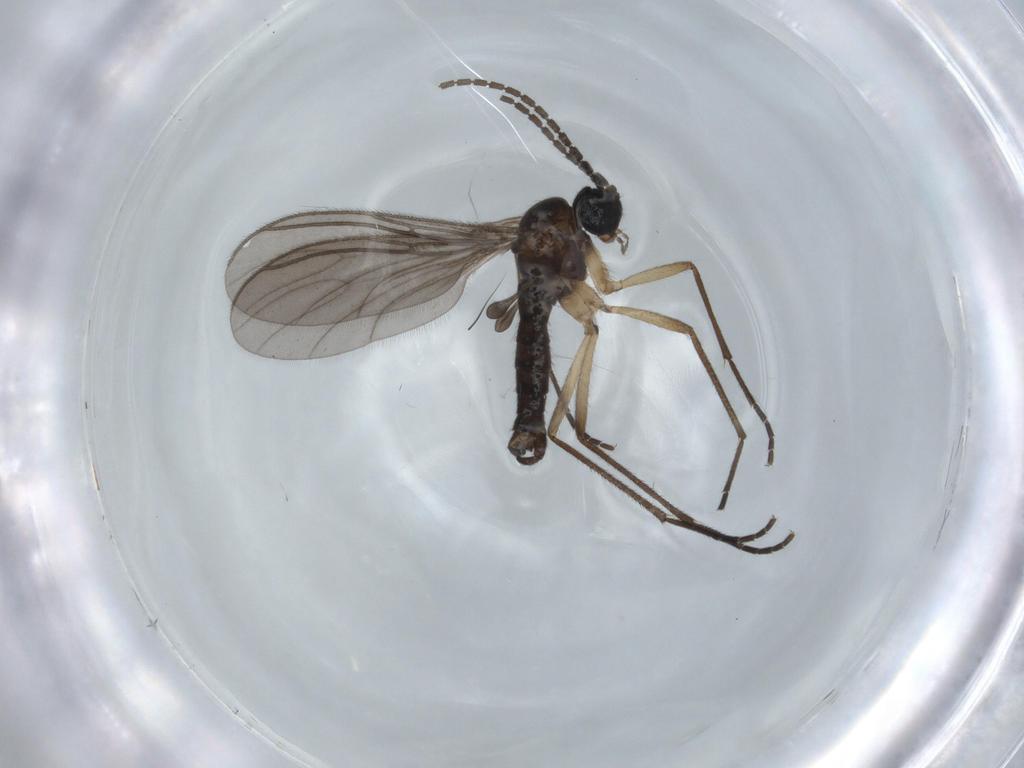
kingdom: Animalia
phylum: Arthropoda
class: Insecta
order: Diptera
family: Sciaridae
